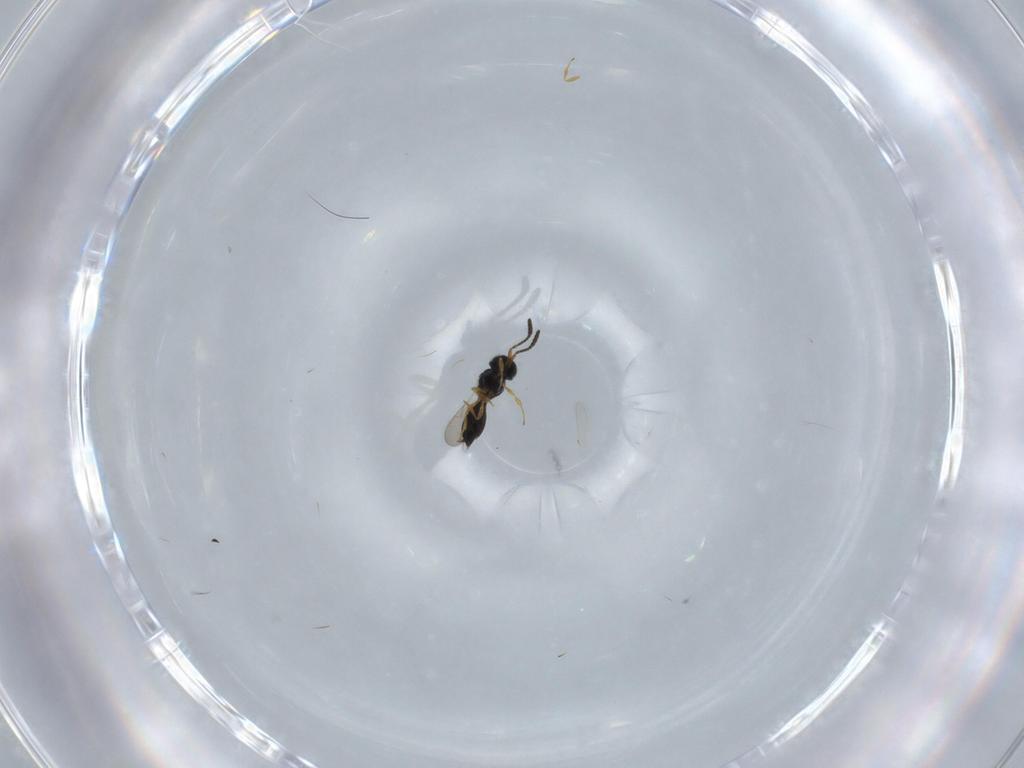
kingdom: Animalia
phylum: Arthropoda
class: Insecta
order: Hymenoptera
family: Scelionidae
